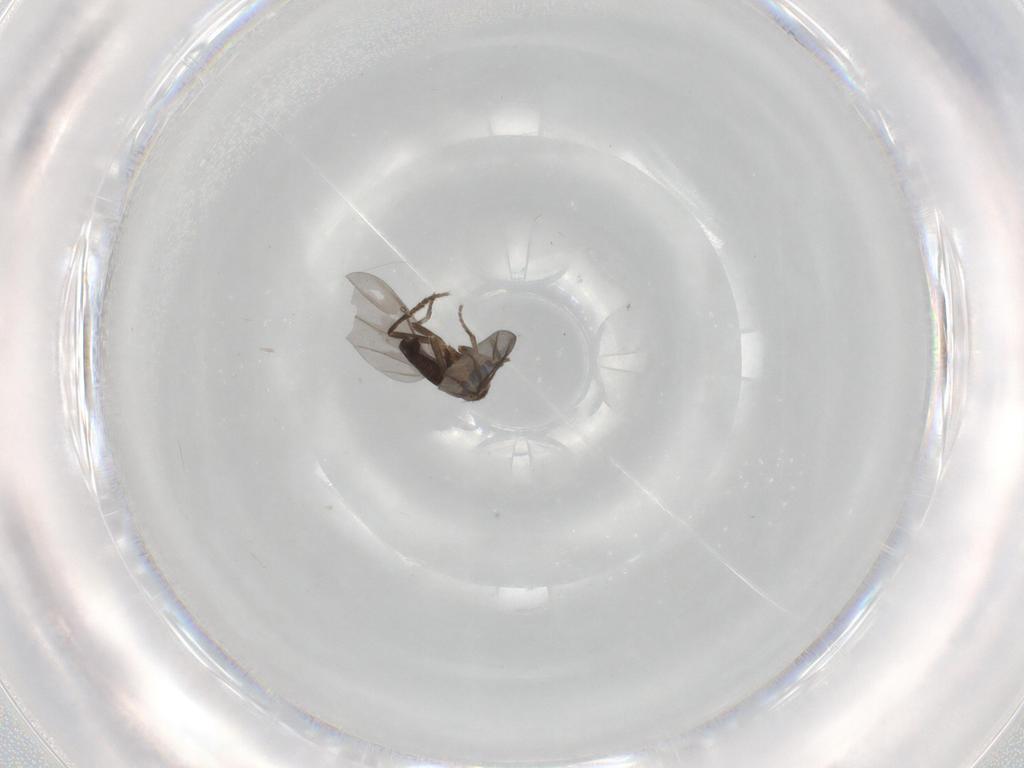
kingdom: Animalia
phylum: Arthropoda
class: Insecta
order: Diptera
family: Phoridae
